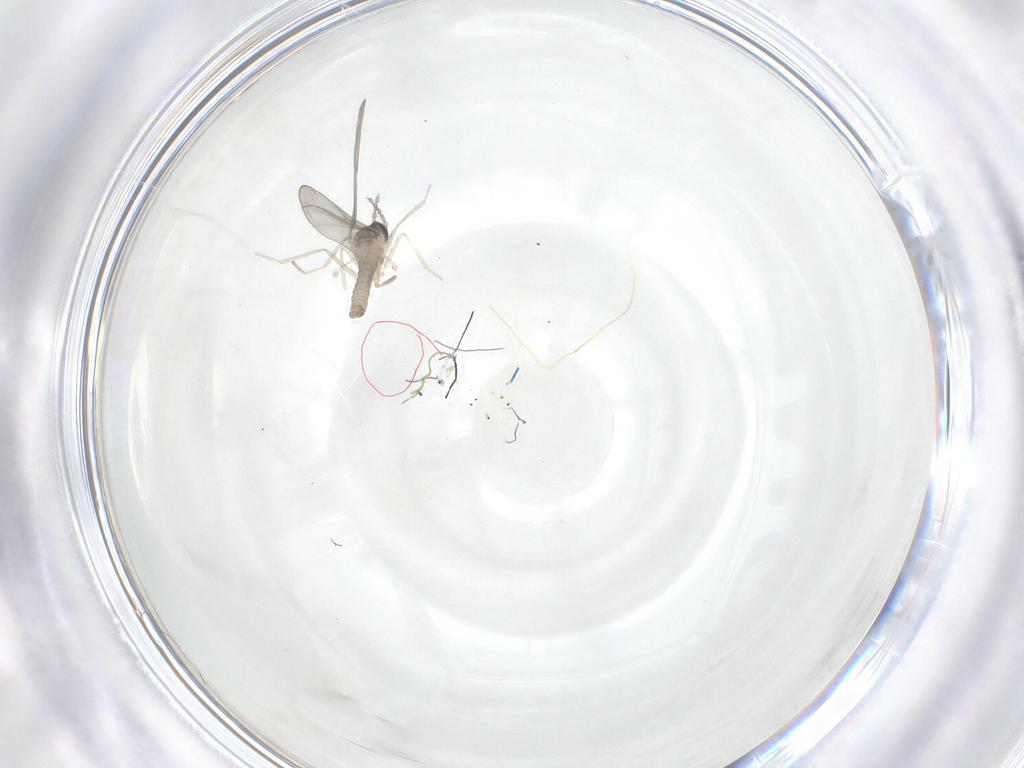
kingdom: Animalia
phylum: Arthropoda
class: Insecta
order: Diptera
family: Cecidomyiidae
